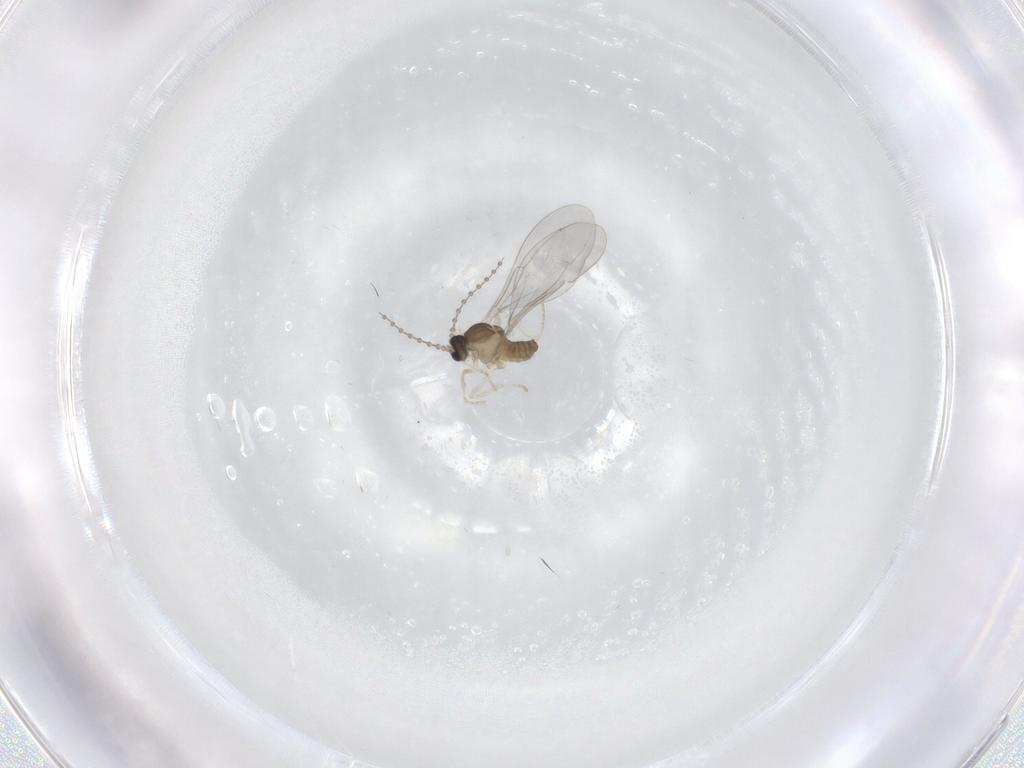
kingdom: Animalia
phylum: Arthropoda
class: Insecta
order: Diptera
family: Cecidomyiidae
